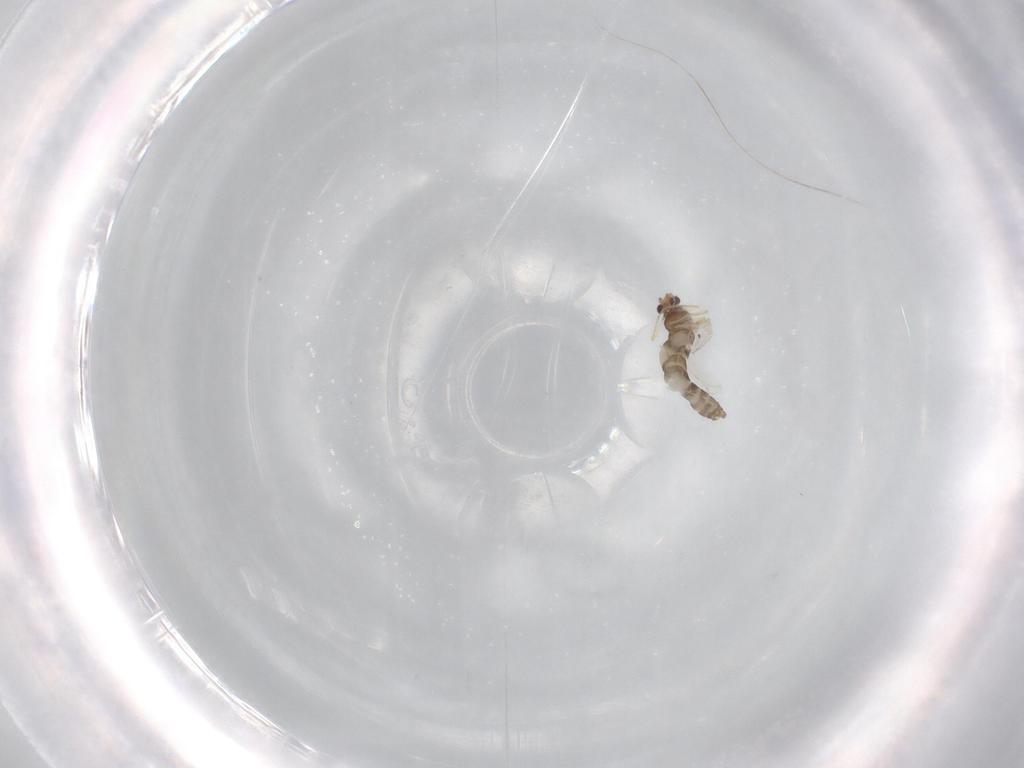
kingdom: Animalia
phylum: Arthropoda
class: Insecta
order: Diptera
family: Chironomidae
